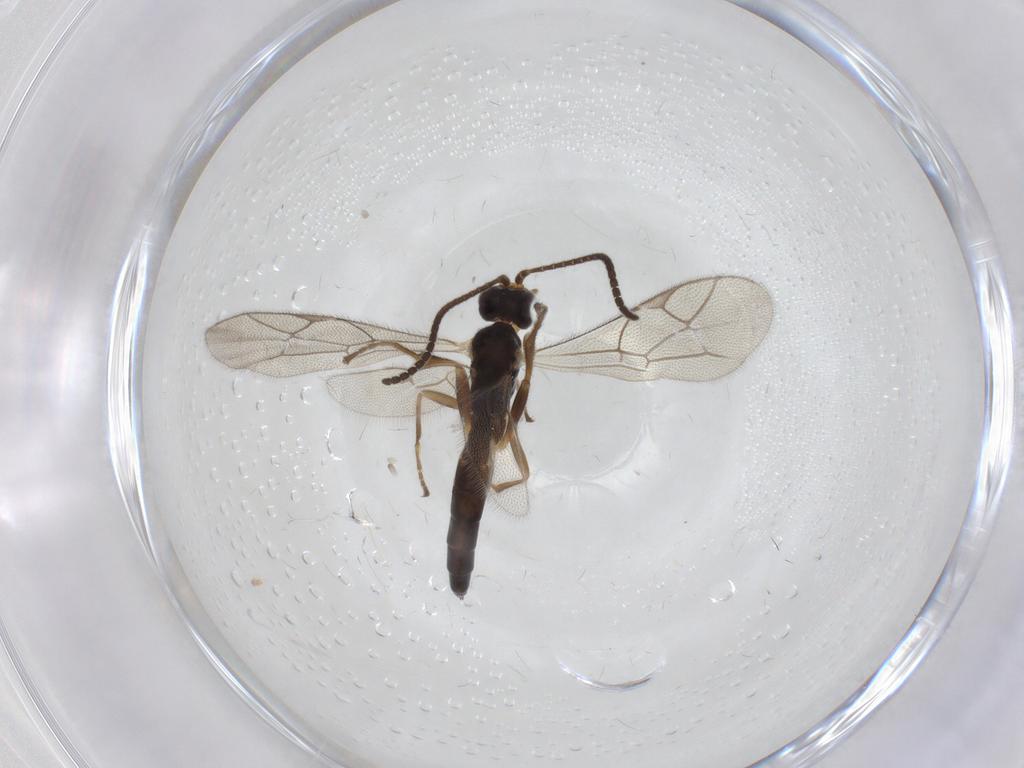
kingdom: Animalia
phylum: Arthropoda
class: Insecta
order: Hymenoptera
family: Ichneumonidae
